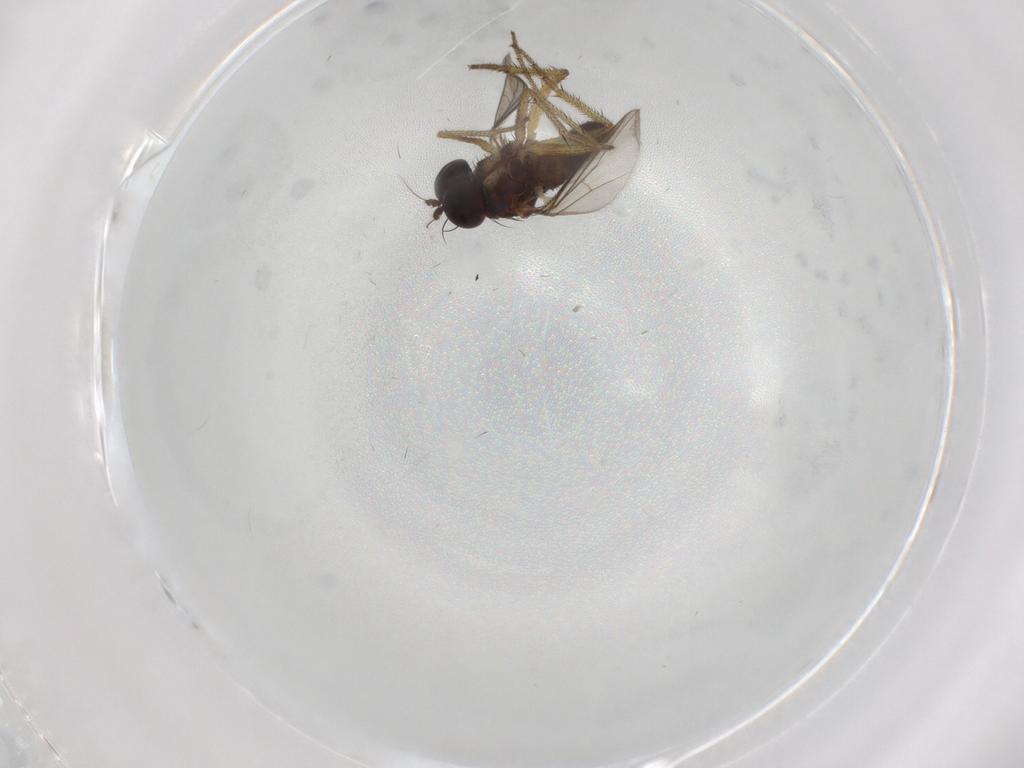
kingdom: Animalia
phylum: Arthropoda
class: Insecta
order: Diptera
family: Dolichopodidae
